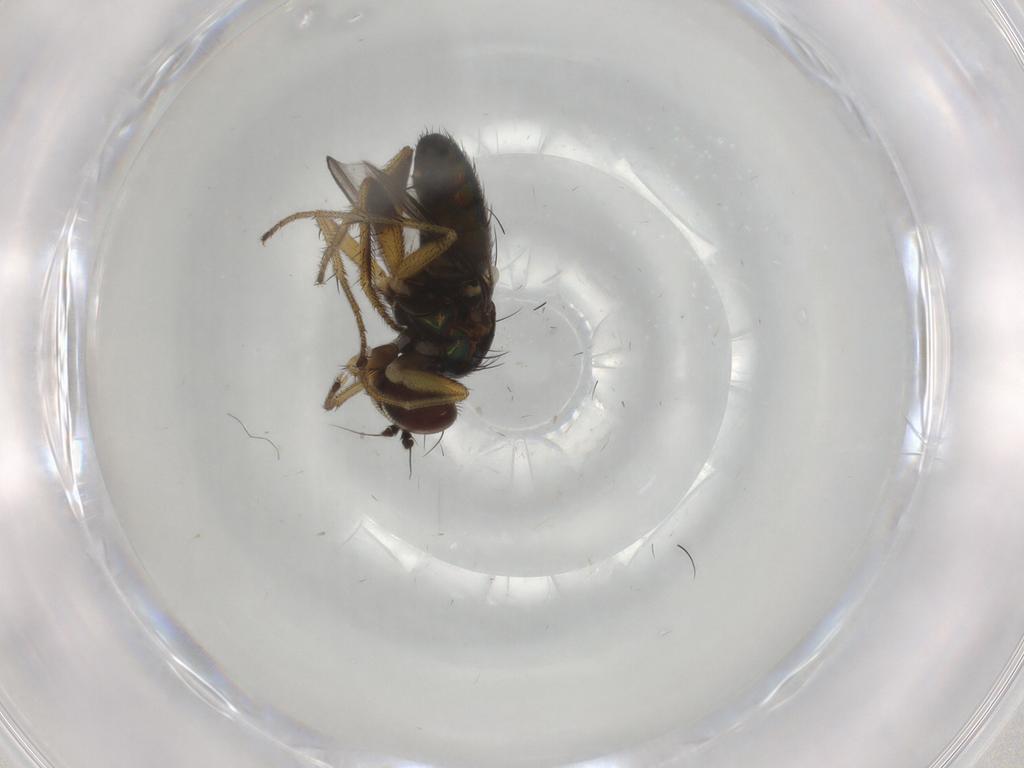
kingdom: Animalia
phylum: Arthropoda
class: Insecta
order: Diptera
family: Dolichopodidae
